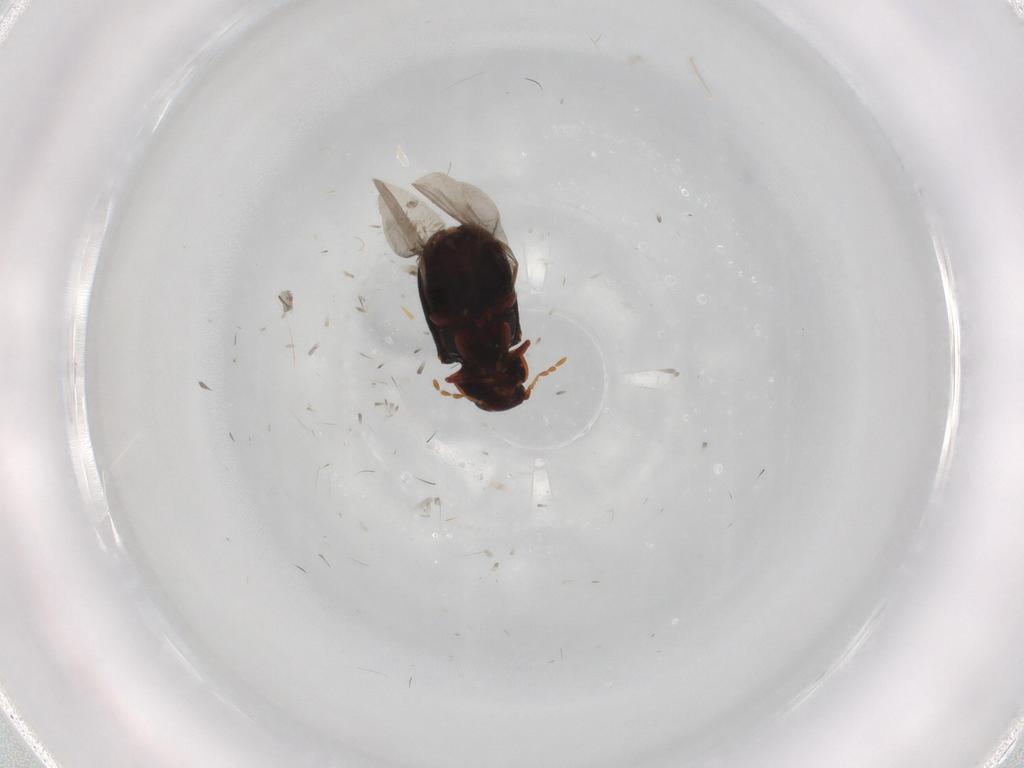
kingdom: Animalia
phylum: Arthropoda
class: Insecta
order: Coleoptera
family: Ptinidae
